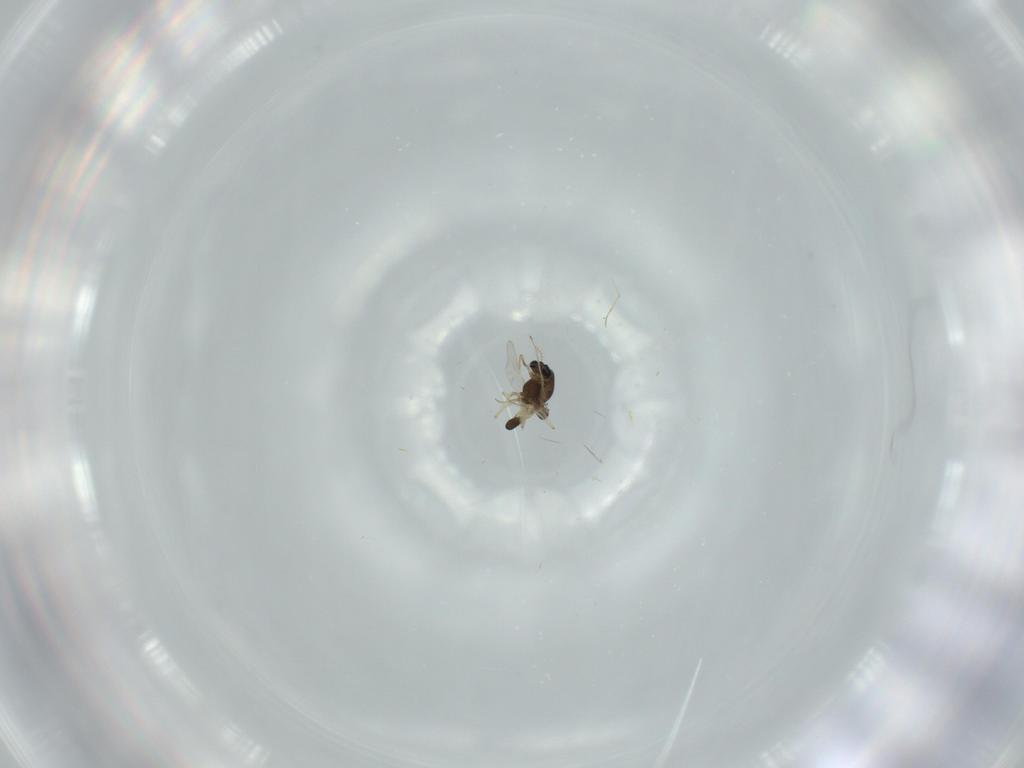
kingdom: Animalia
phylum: Arthropoda
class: Insecta
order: Diptera
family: Chironomidae
